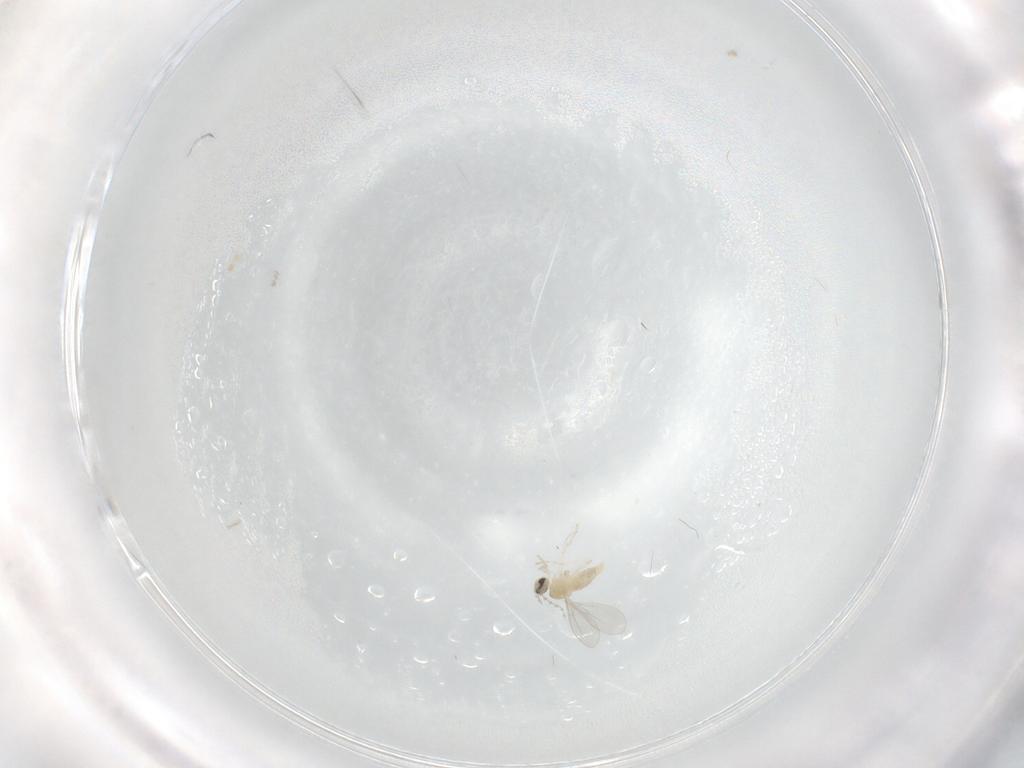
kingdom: Animalia
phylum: Arthropoda
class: Insecta
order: Diptera
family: Cecidomyiidae
